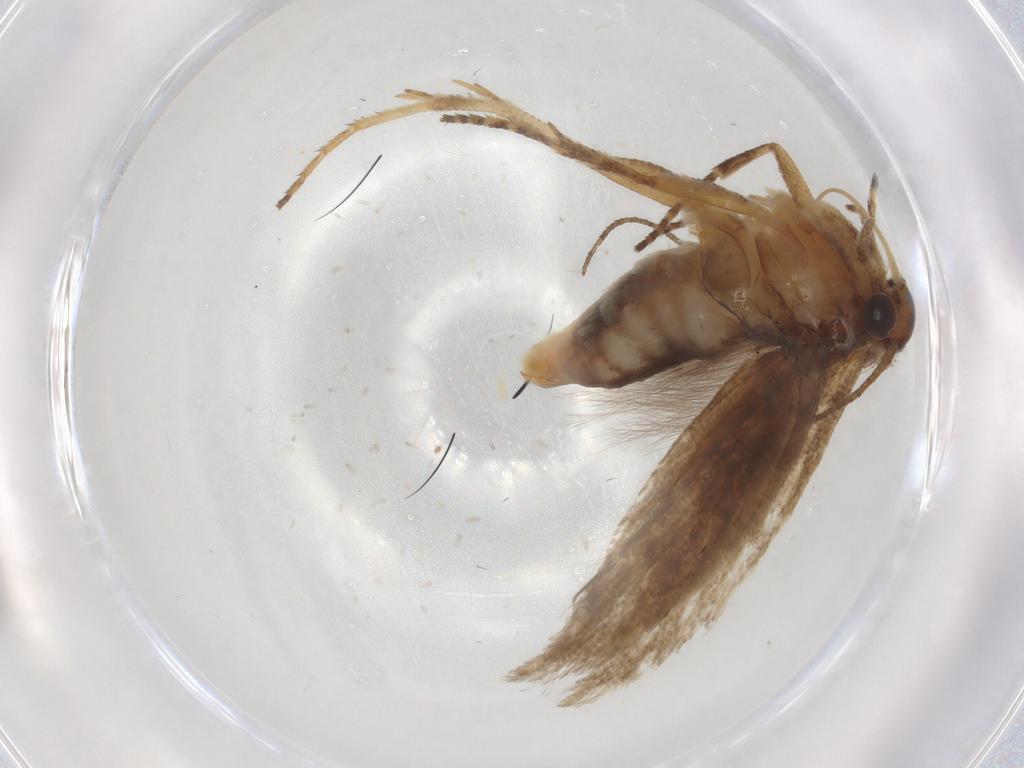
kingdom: Animalia
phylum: Arthropoda
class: Insecta
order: Lepidoptera
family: Gelechiidae
